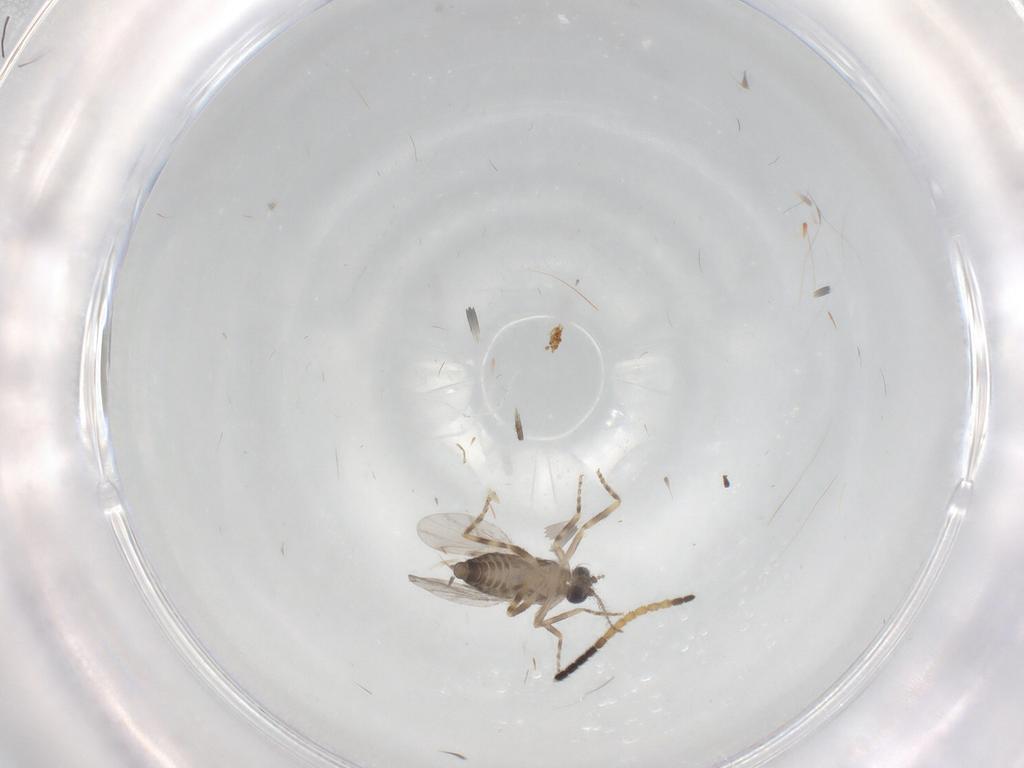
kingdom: Animalia
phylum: Arthropoda
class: Insecta
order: Diptera
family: Ceratopogonidae
